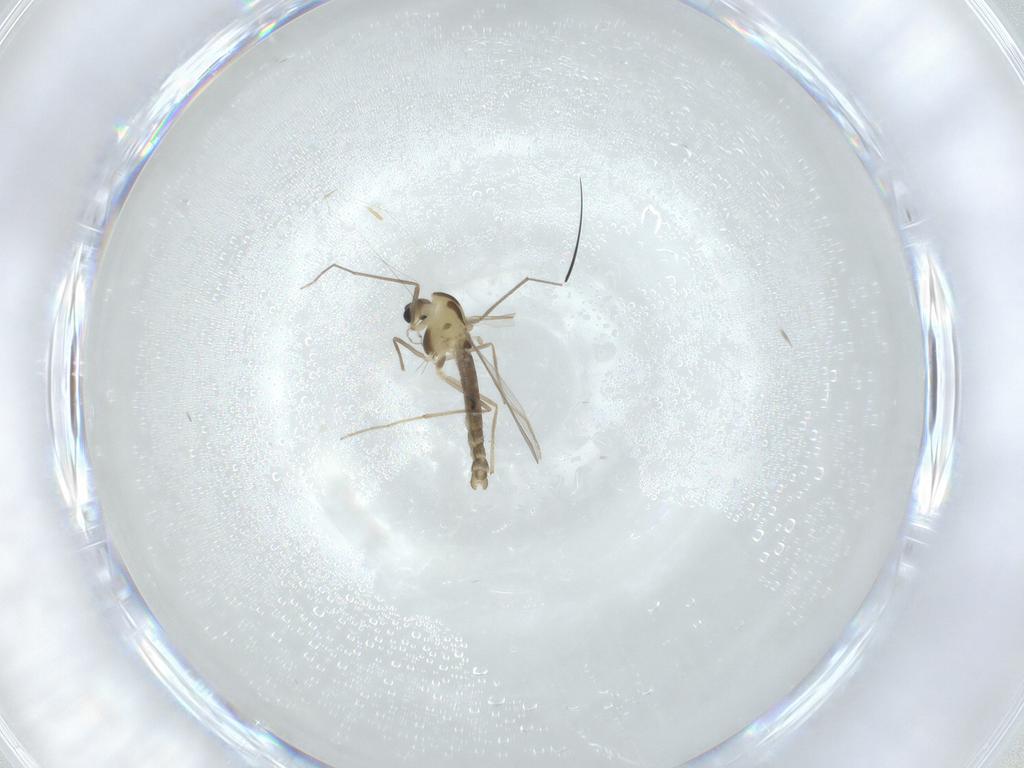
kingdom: Animalia
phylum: Arthropoda
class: Insecta
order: Diptera
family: Chironomidae
